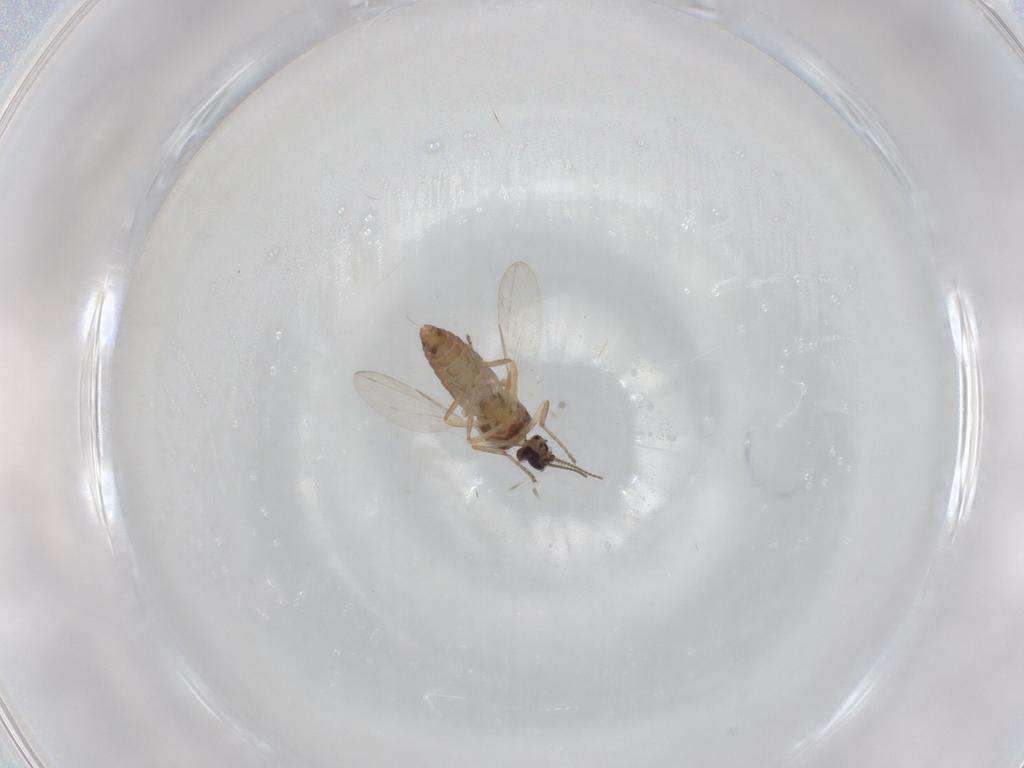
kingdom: Animalia
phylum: Arthropoda
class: Insecta
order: Diptera
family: Ceratopogonidae
